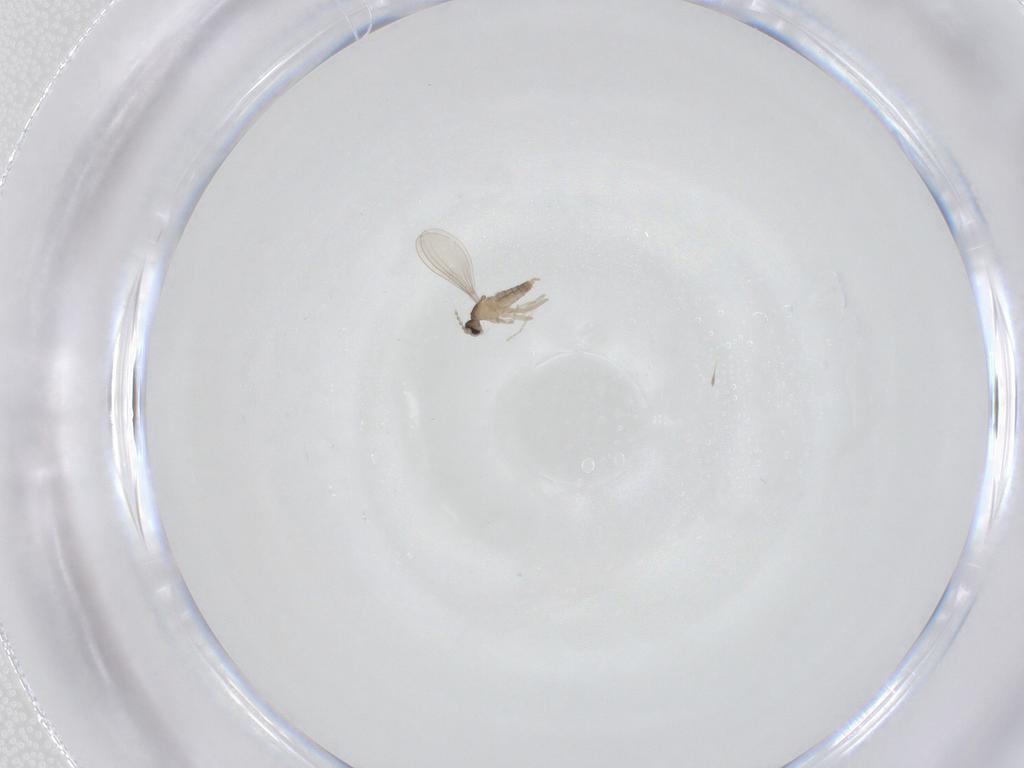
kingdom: Animalia
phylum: Arthropoda
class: Insecta
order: Diptera
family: Cecidomyiidae
